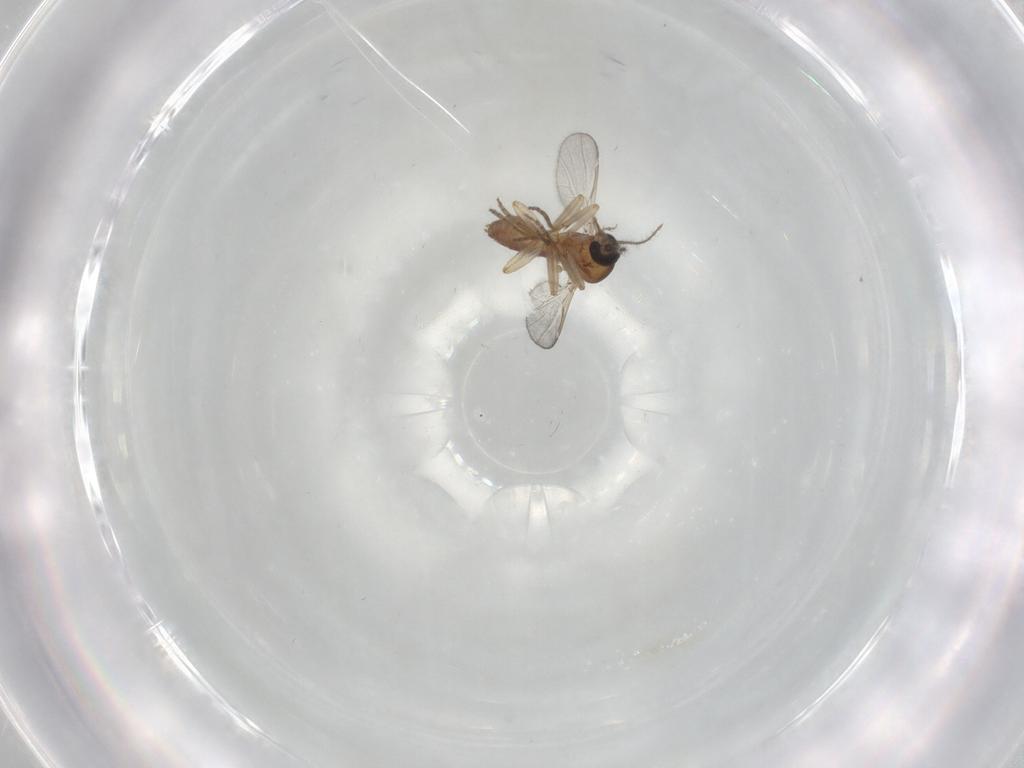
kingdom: Animalia
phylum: Arthropoda
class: Insecta
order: Diptera
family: Ceratopogonidae
